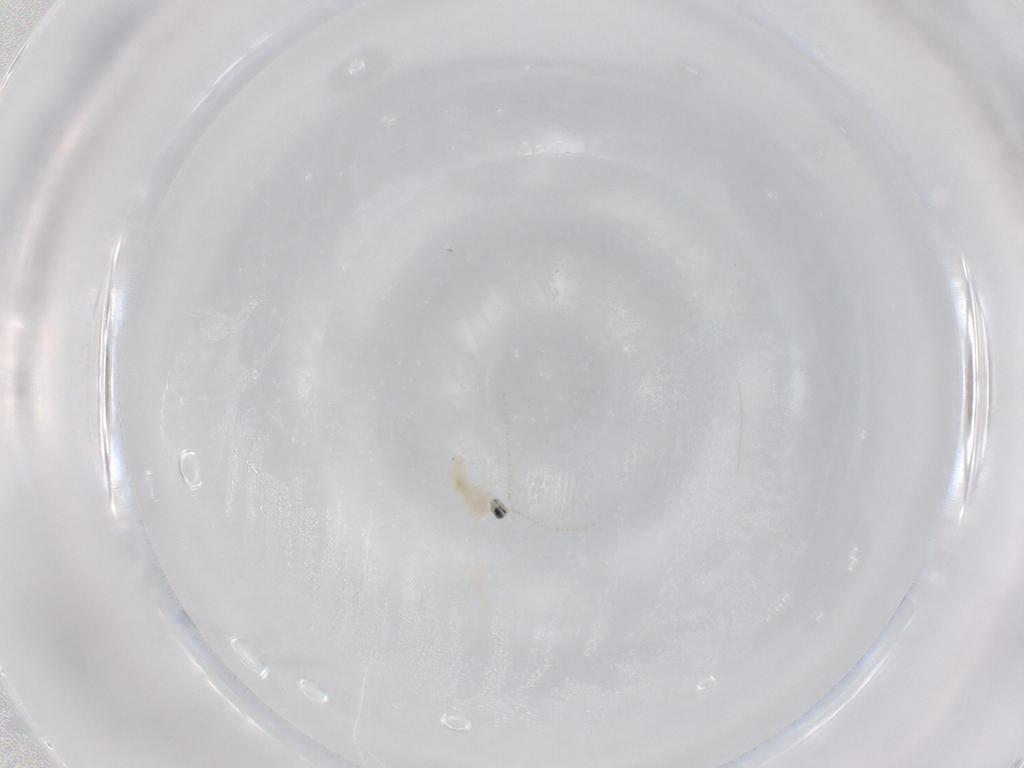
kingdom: Animalia
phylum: Arthropoda
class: Insecta
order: Diptera
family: Cecidomyiidae
